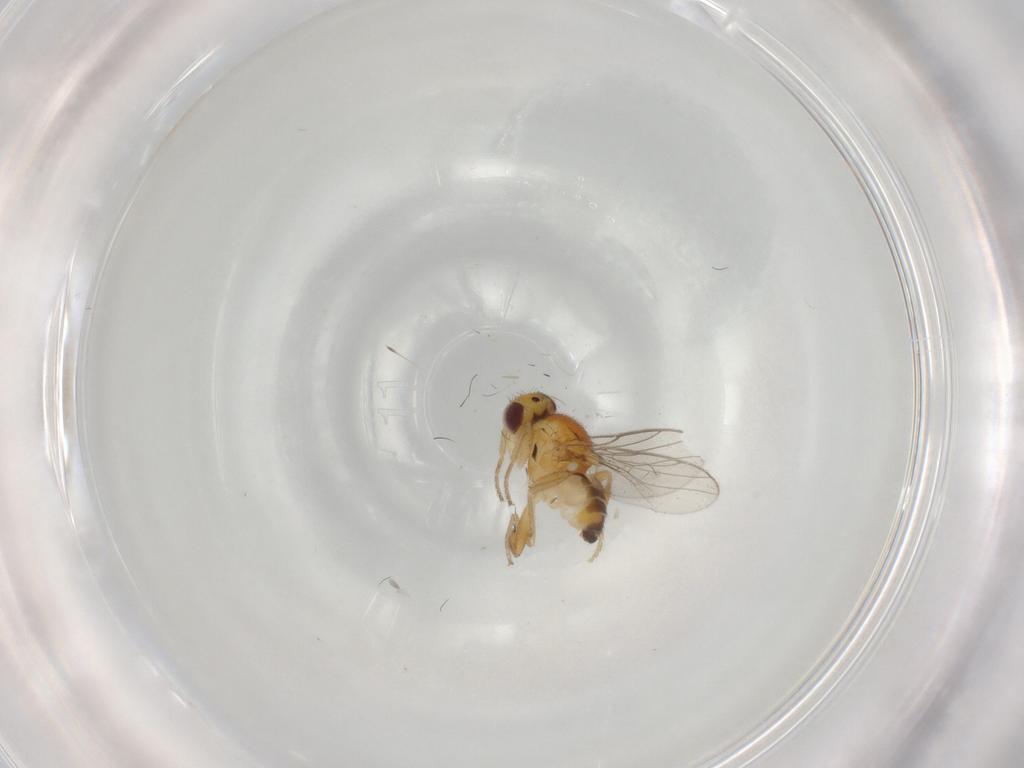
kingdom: Animalia
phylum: Arthropoda
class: Insecta
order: Diptera
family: Chloropidae
